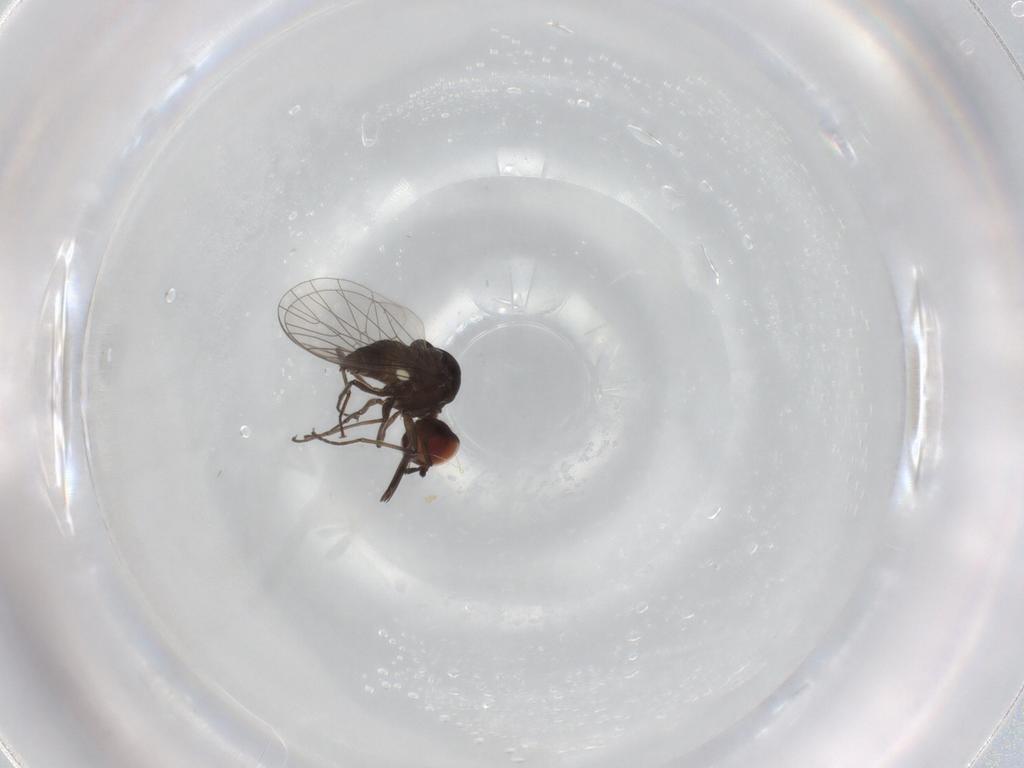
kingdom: Animalia
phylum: Arthropoda
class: Insecta
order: Diptera
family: Bombyliidae
